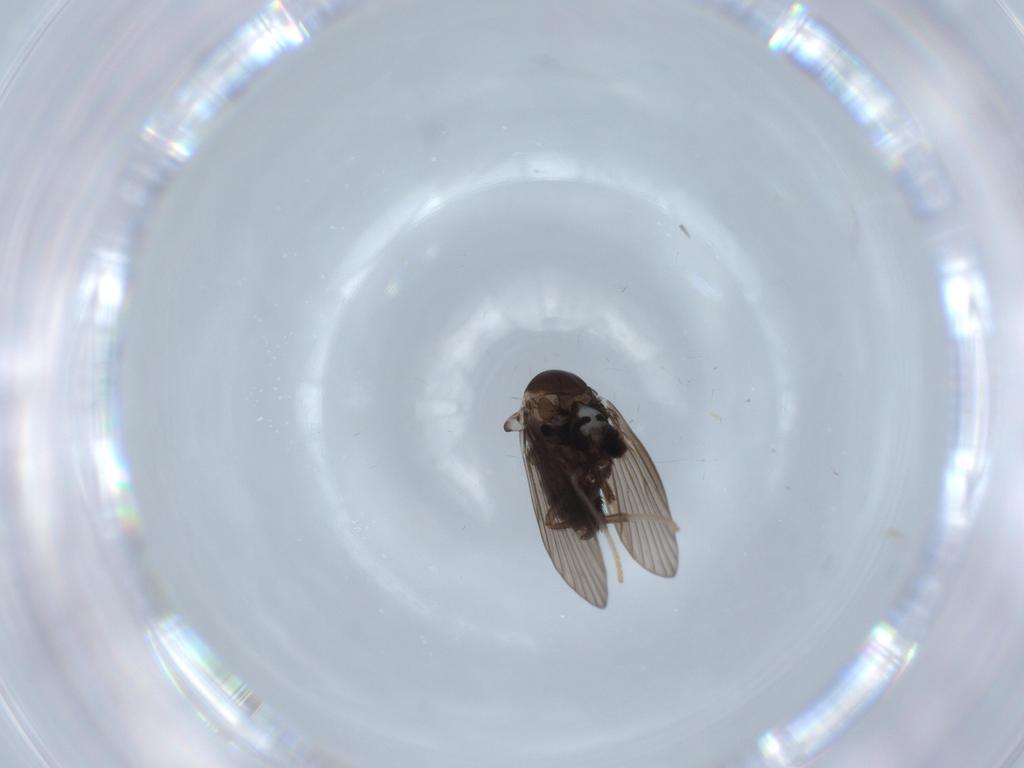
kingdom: Animalia
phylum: Arthropoda
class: Insecta
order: Diptera
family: Psychodidae
